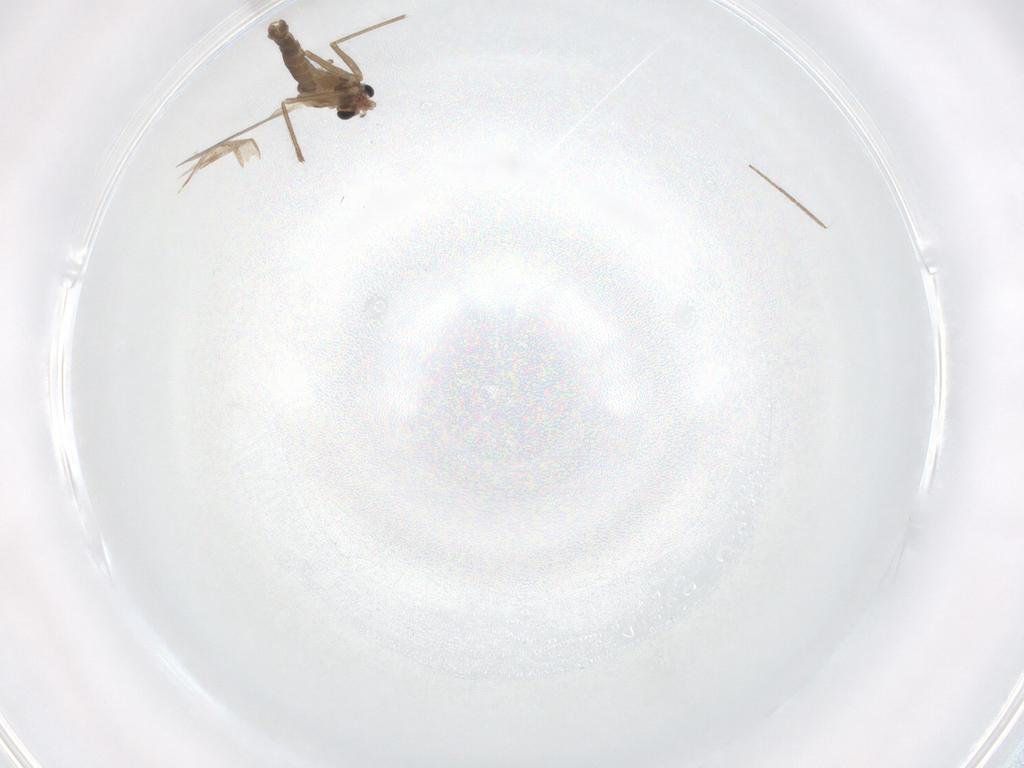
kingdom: Animalia
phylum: Arthropoda
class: Insecta
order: Diptera
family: Chironomidae
